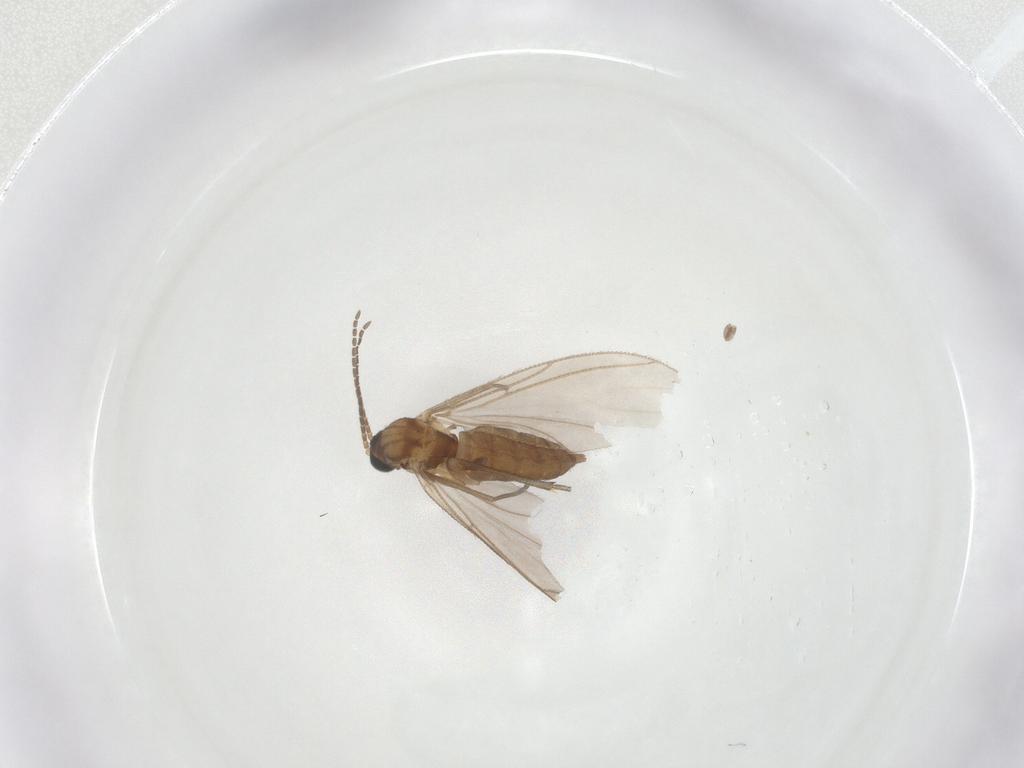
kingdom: Animalia
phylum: Arthropoda
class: Insecta
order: Diptera
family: Sciaridae
